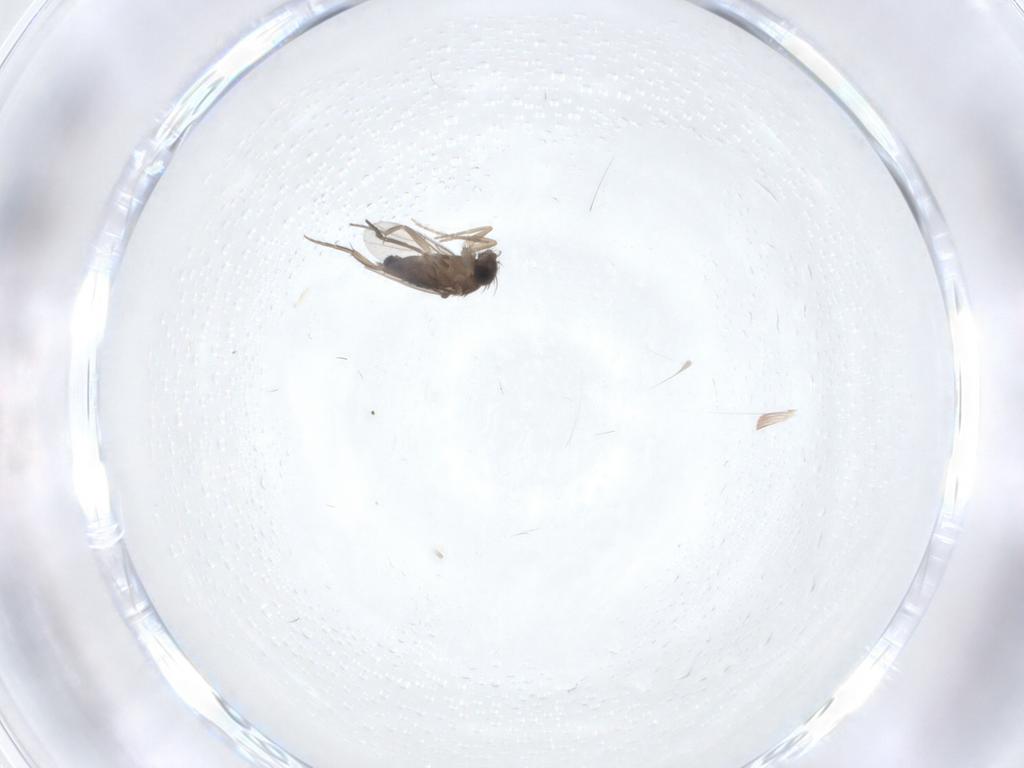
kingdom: Animalia
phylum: Arthropoda
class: Insecta
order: Diptera
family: Phoridae
